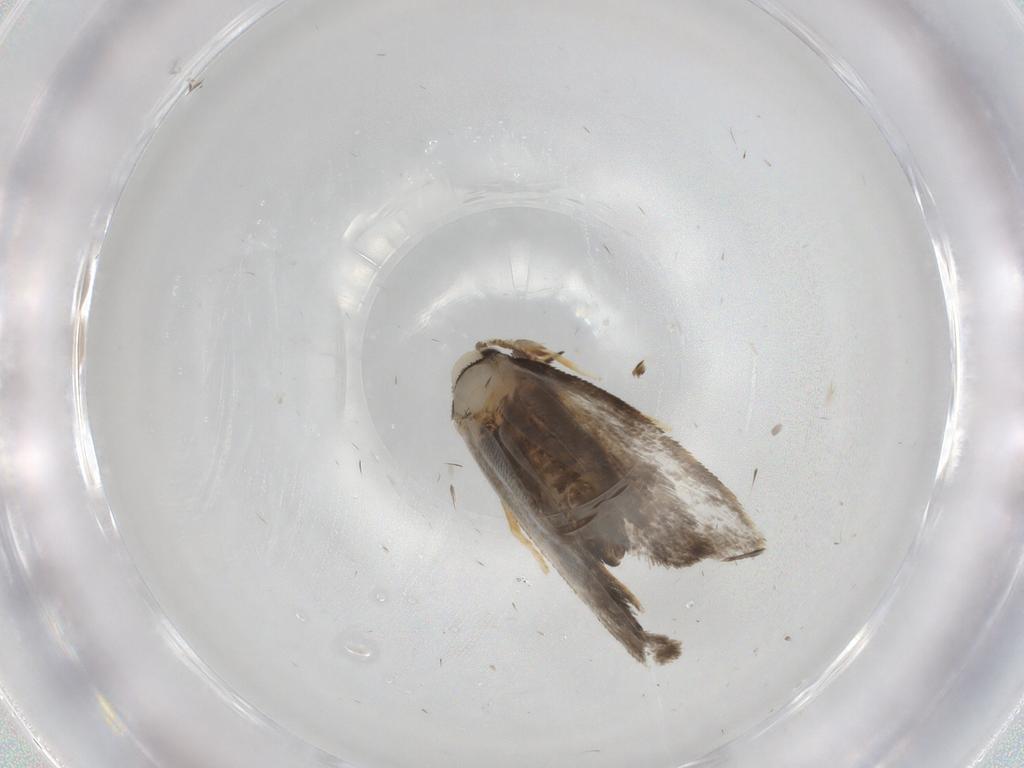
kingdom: Animalia
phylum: Arthropoda
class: Insecta
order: Lepidoptera
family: Psychidae
